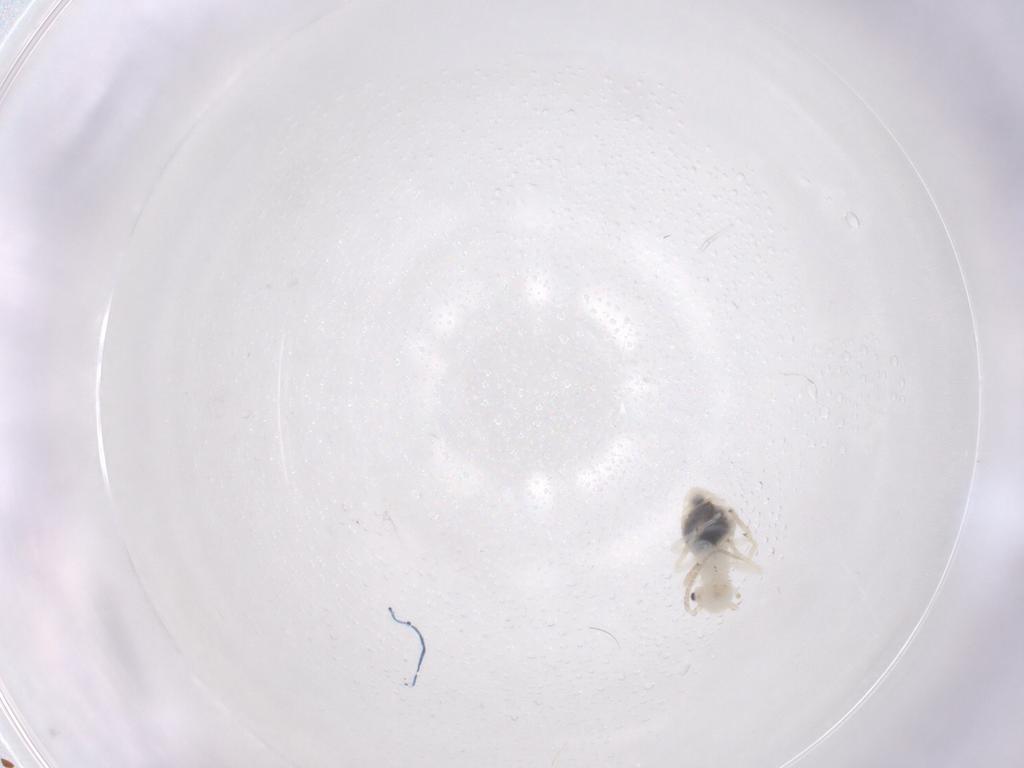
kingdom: Animalia
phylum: Arthropoda
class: Insecta
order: Psocodea
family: Philotarsidae
